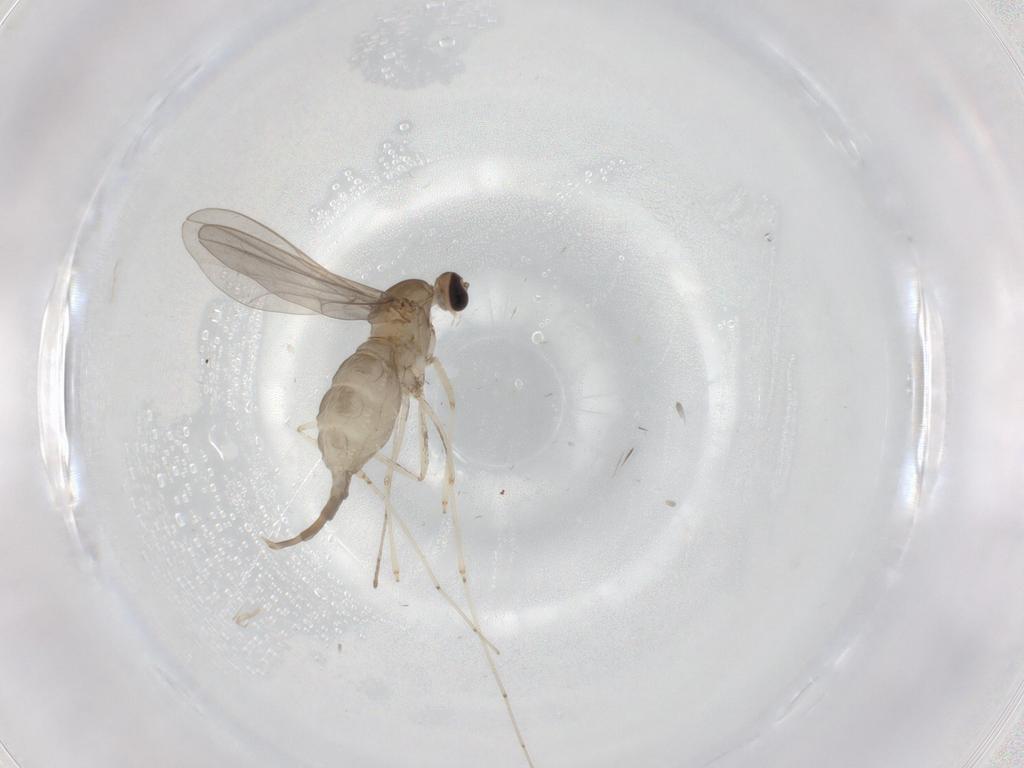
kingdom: Animalia
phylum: Arthropoda
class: Insecta
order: Diptera
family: Cecidomyiidae
